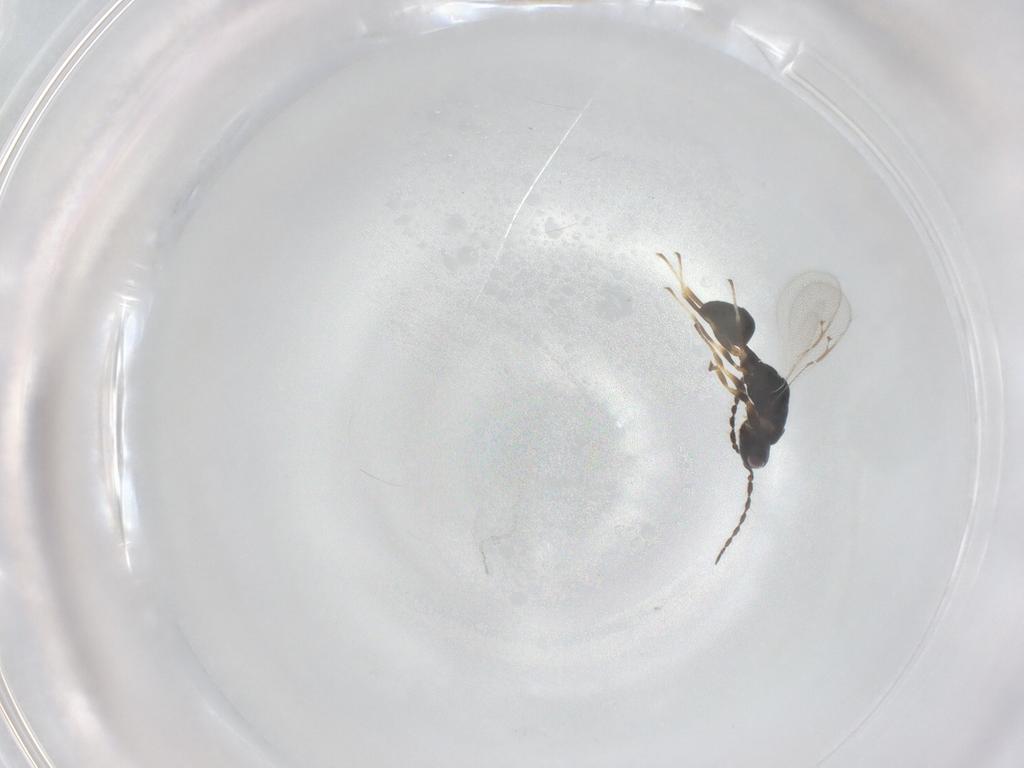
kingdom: Animalia
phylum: Arthropoda
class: Insecta
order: Hymenoptera
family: Eurytomidae
